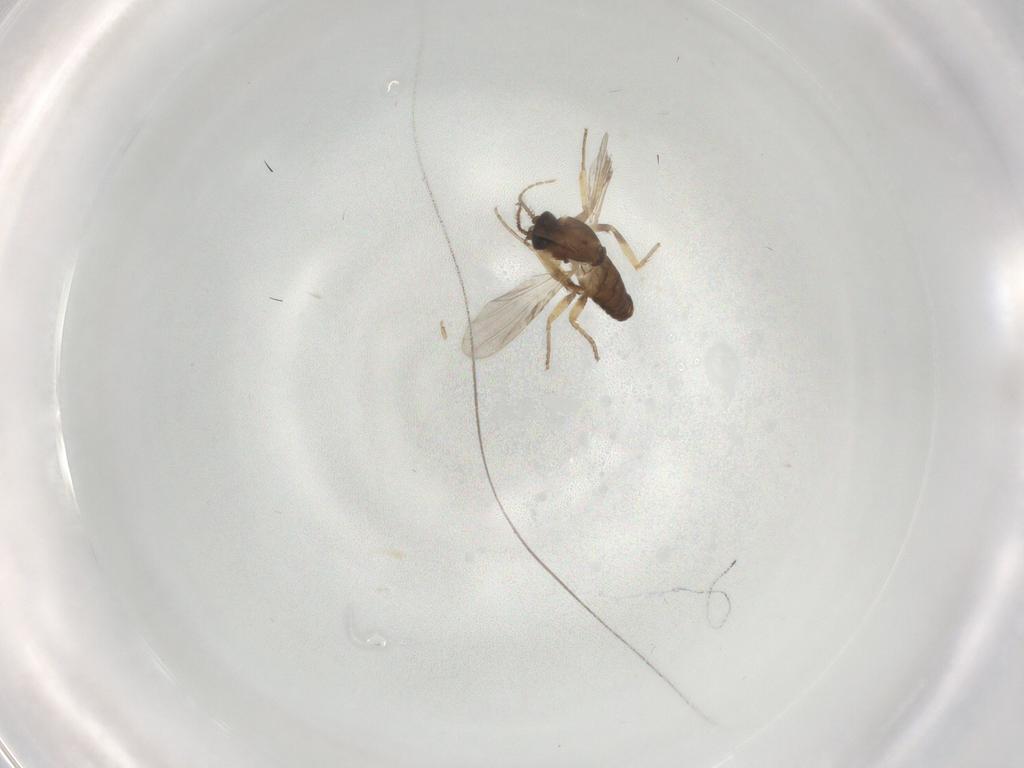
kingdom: Animalia
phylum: Arthropoda
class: Insecta
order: Diptera
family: Ceratopogonidae
